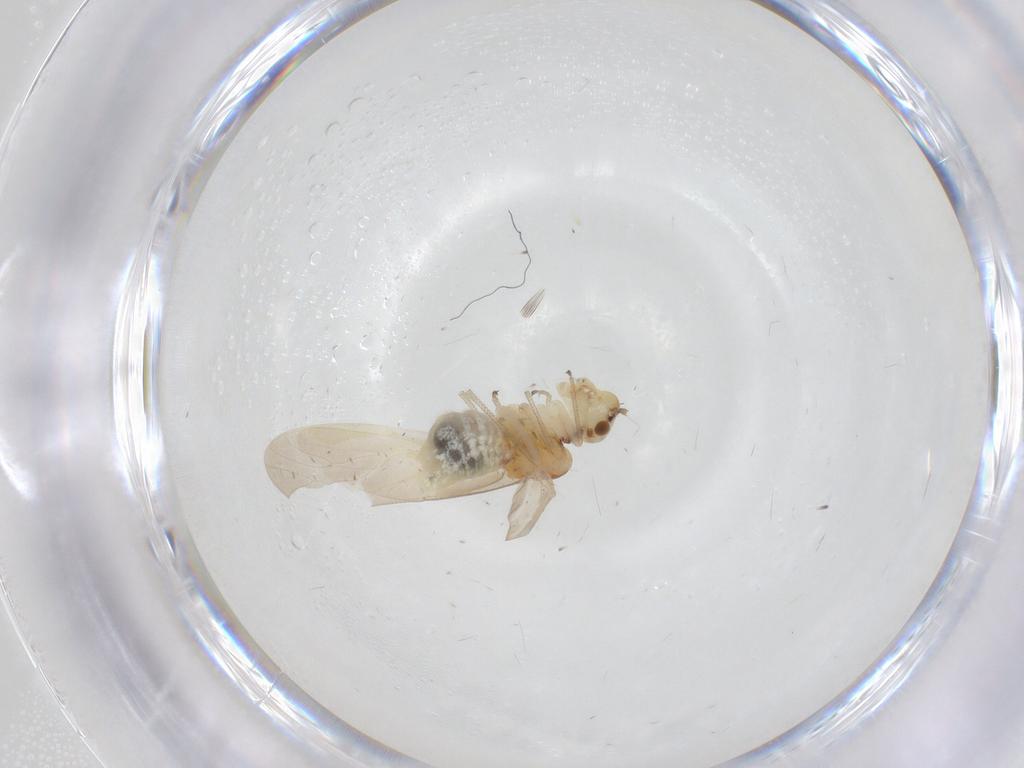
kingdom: Animalia
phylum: Arthropoda
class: Insecta
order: Psocodea
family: Caeciliusidae
